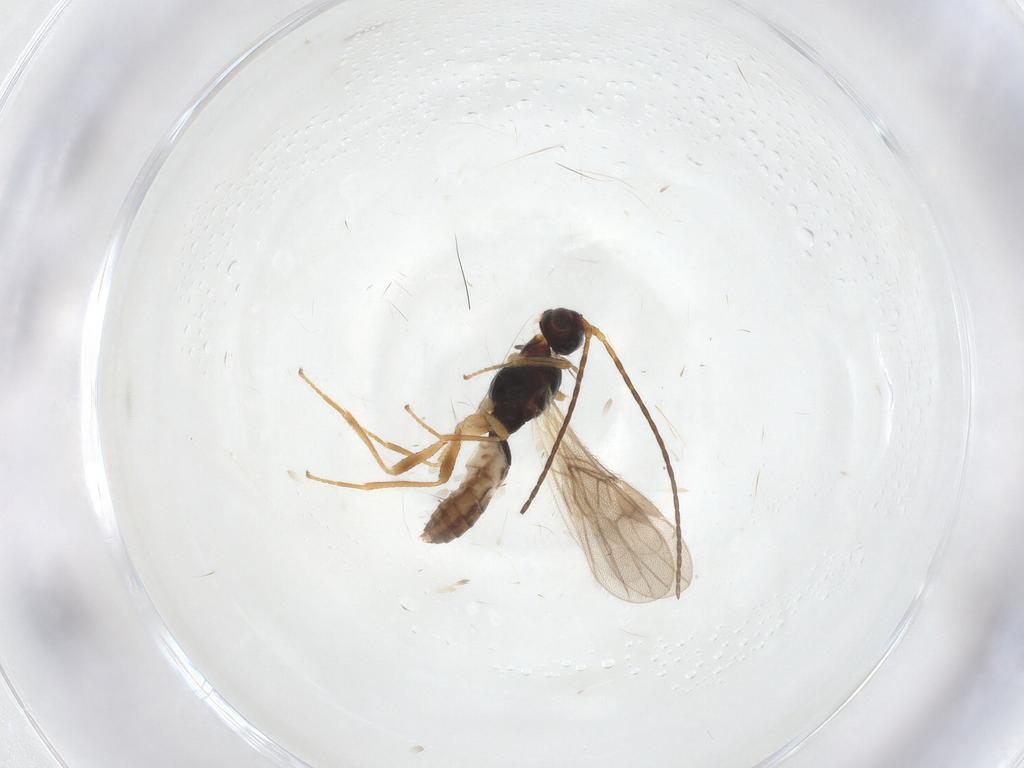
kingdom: Animalia
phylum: Arthropoda
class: Insecta
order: Hymenoptera
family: Braconidae
